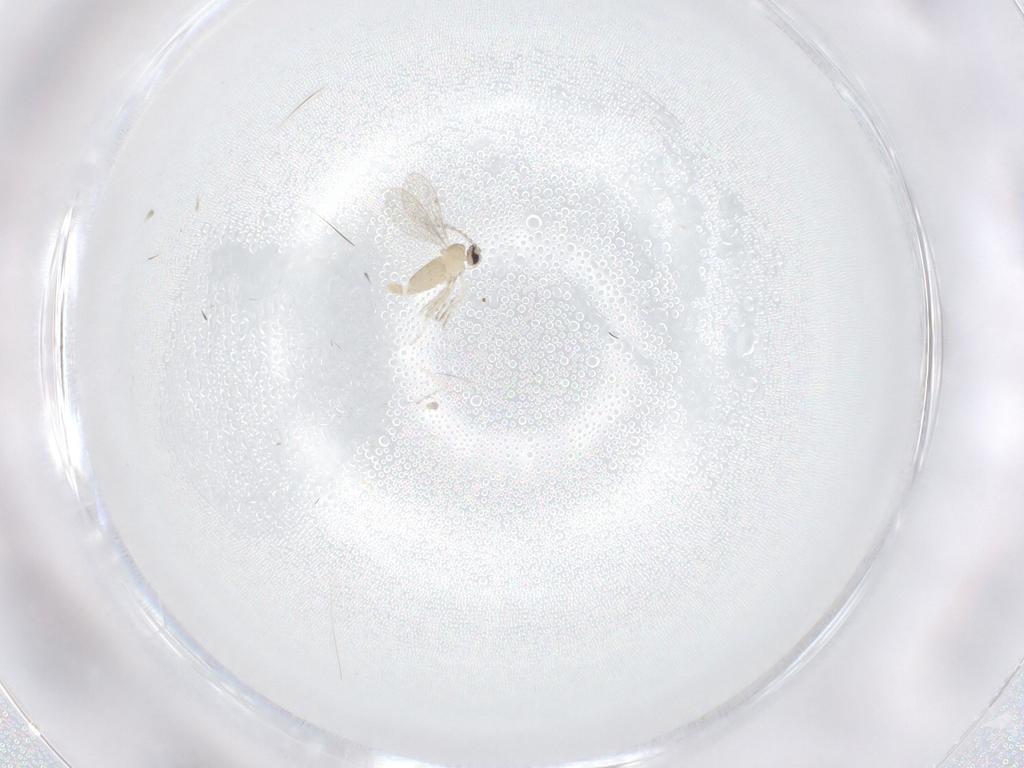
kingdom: Animalia
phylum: Arthropoda
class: Insecta
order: Diptera
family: Cecidomyiidae
